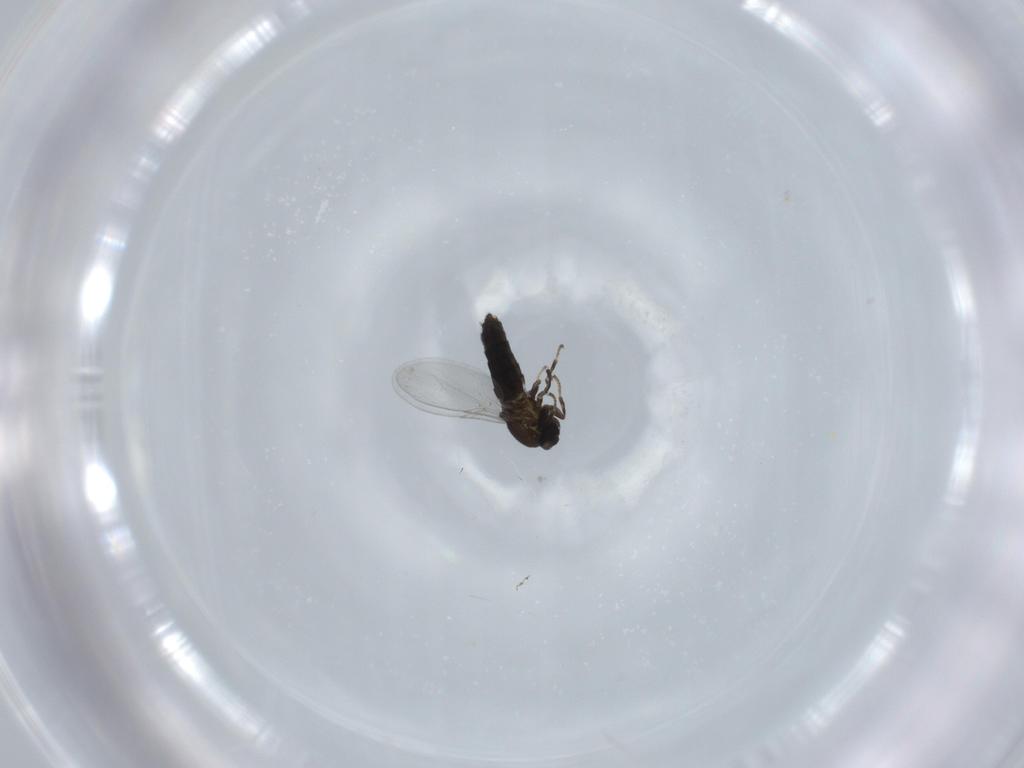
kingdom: Animalia
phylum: Arthropoda
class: Insecta
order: Diptera
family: Scatopsidae
